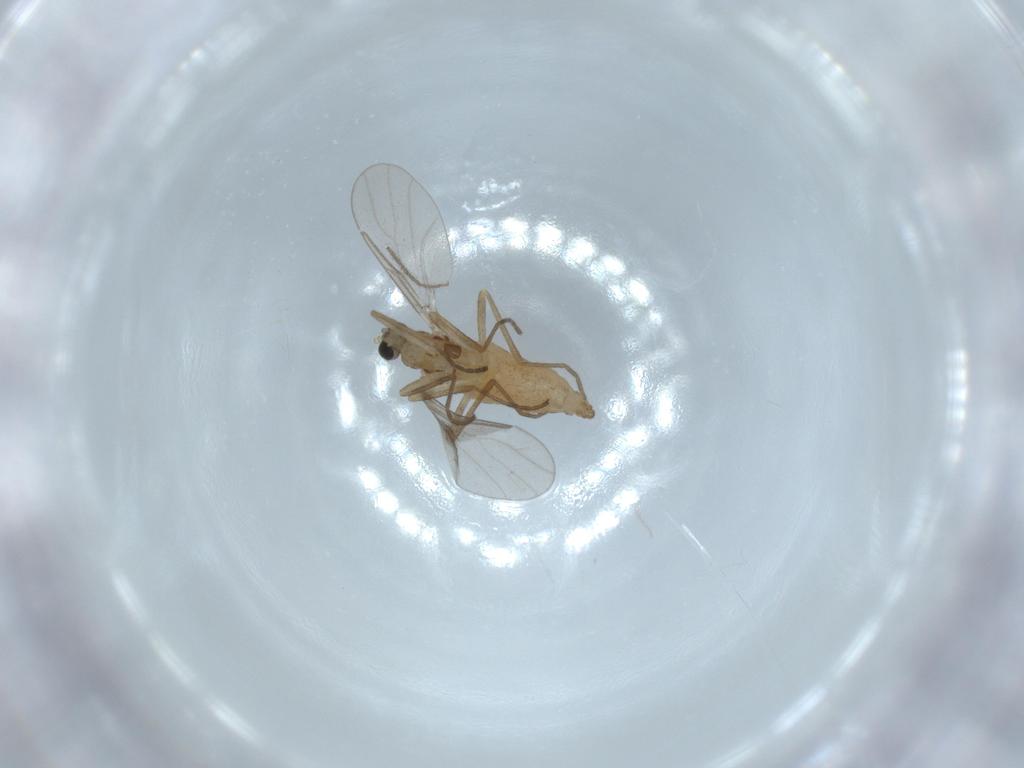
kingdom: Animalia
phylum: Arthropoda
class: Insecta
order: Diptera
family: Cecidomyiidae
